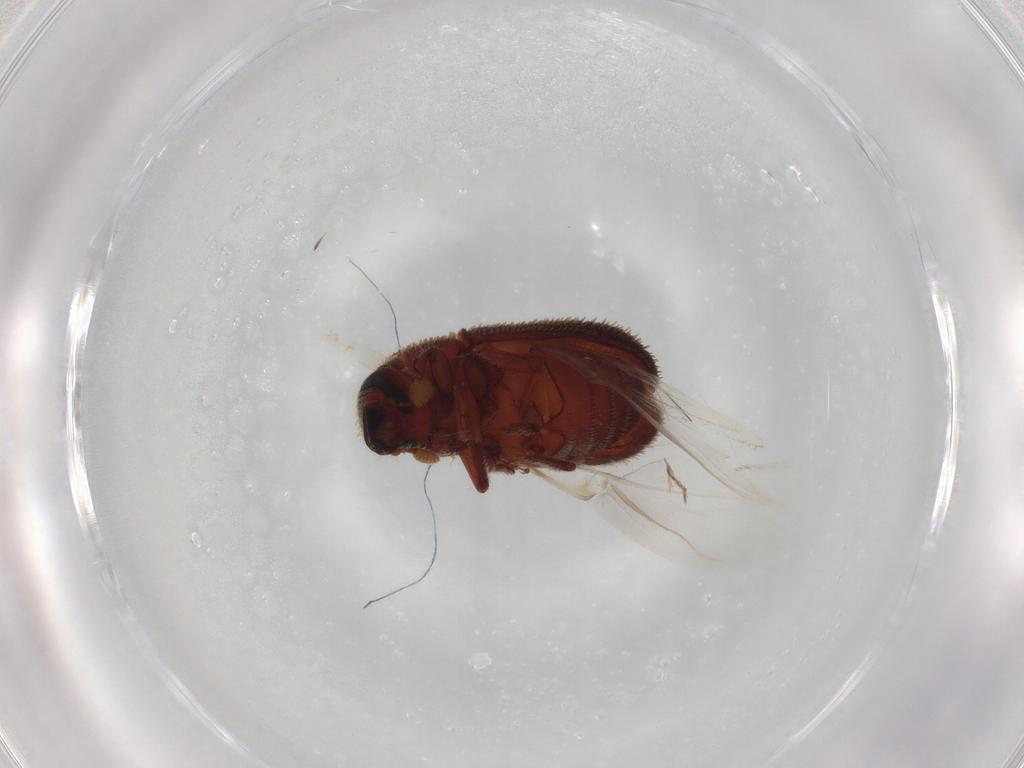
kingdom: Animalia
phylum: Arthropoda
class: Insecta
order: Coleoptera
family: Curculionidae
